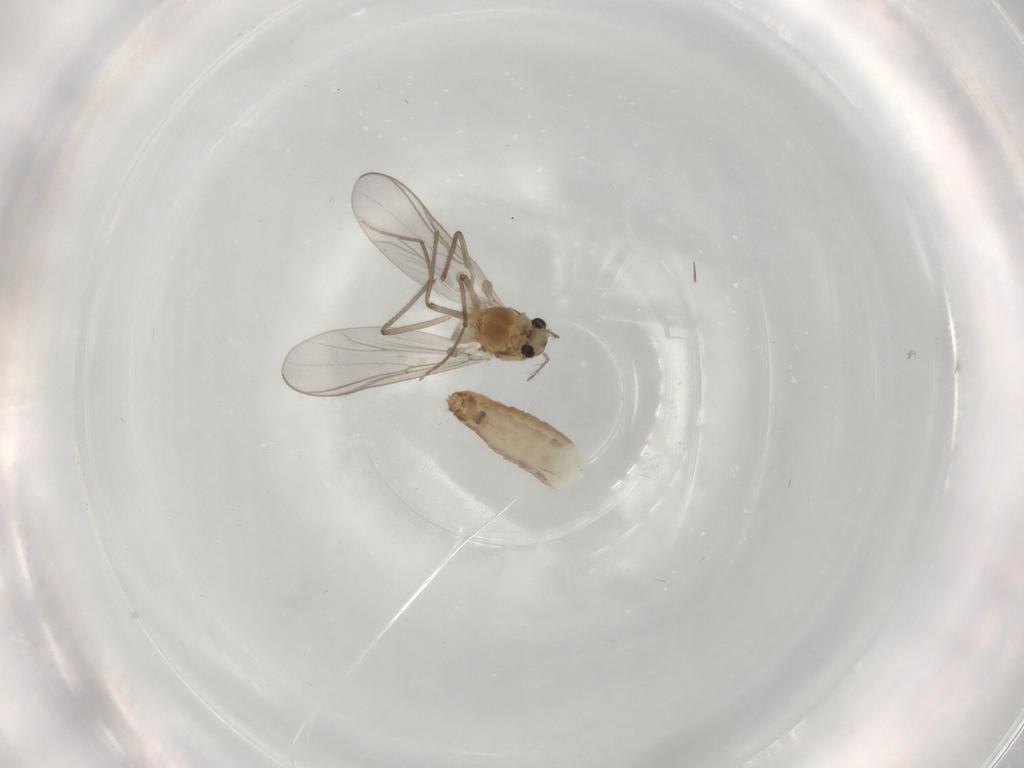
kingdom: Animalia
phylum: Arthropoda
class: Insecta
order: Diptera
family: Chironomidae
